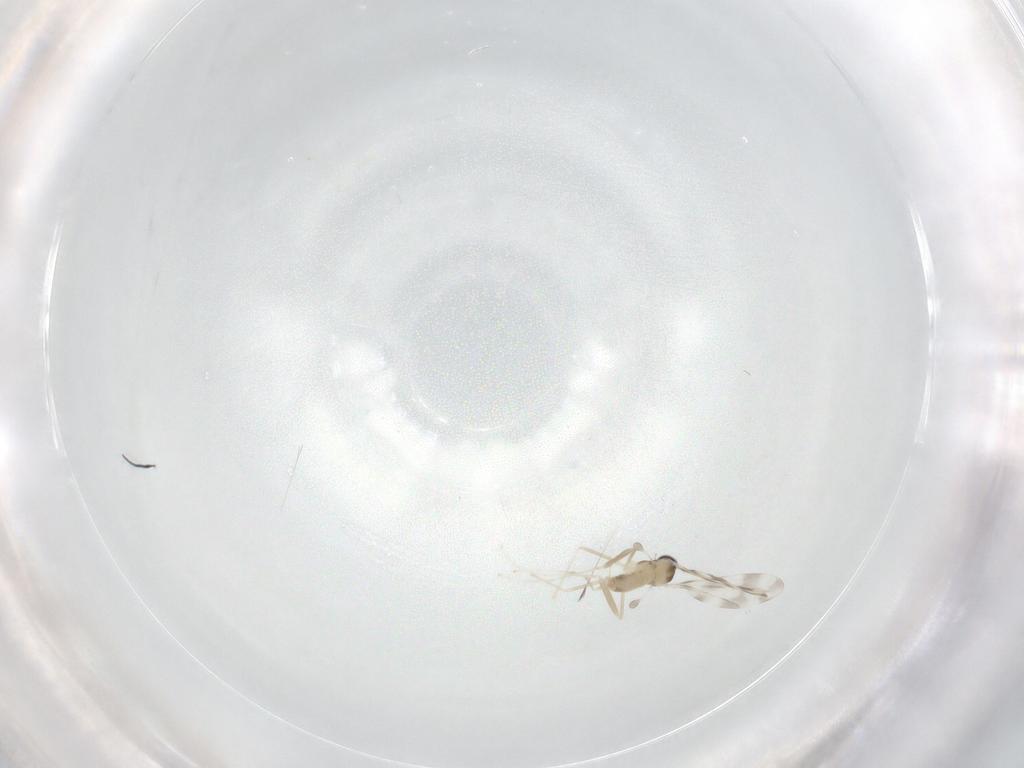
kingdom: Animalia
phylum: Arthropoda
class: Insecta
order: Diptera
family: Cecidomyiidae
